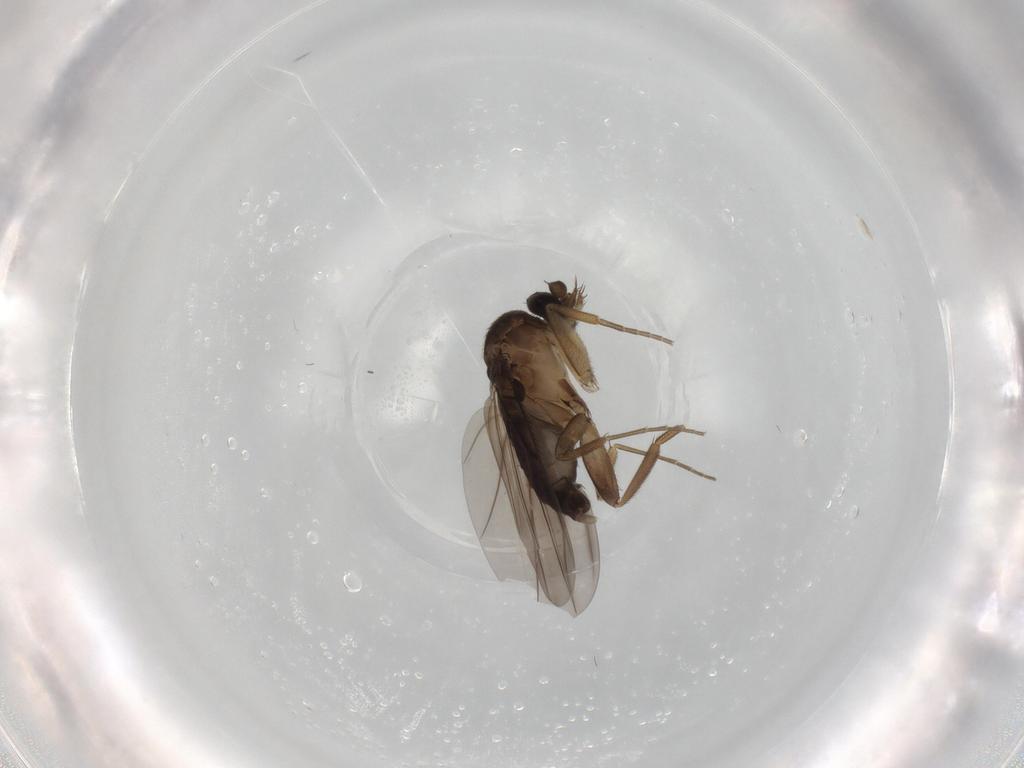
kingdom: Animalia
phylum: Arthropoda
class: Insecta
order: Diptera
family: Phoridae
